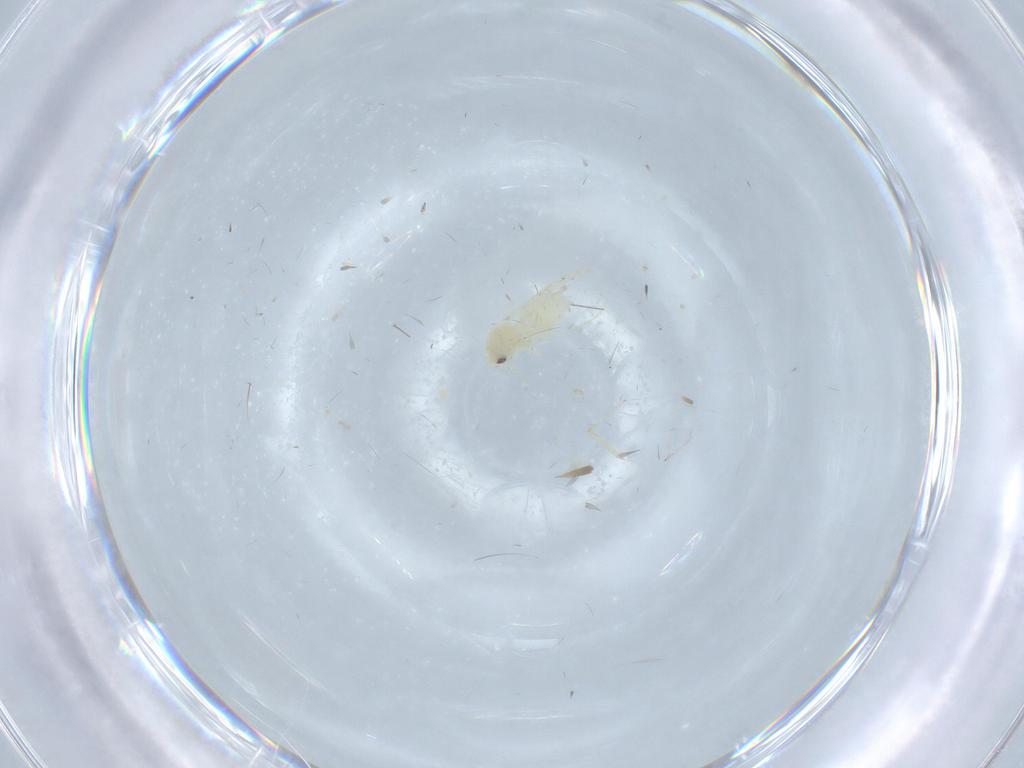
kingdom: Animalia
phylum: Arthropoda
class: Insecta
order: Hemiptera
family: Aleyrodidae
